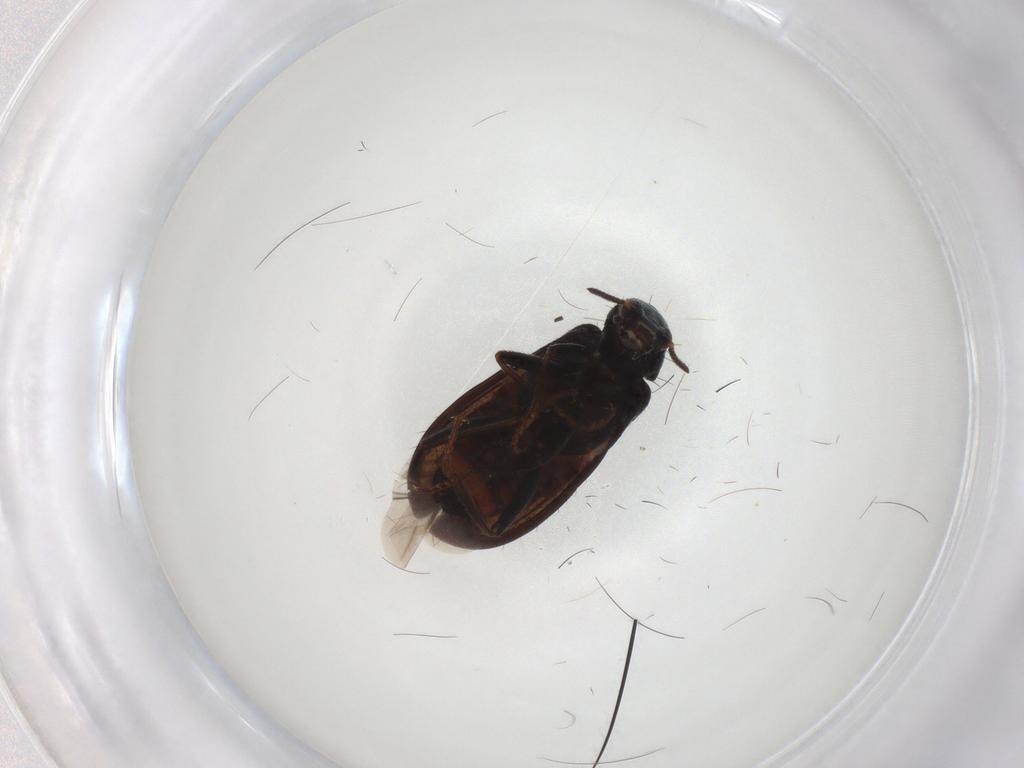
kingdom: Animalia
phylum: Arthropoda
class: Insecta
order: Coleoptera
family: Melyridae
